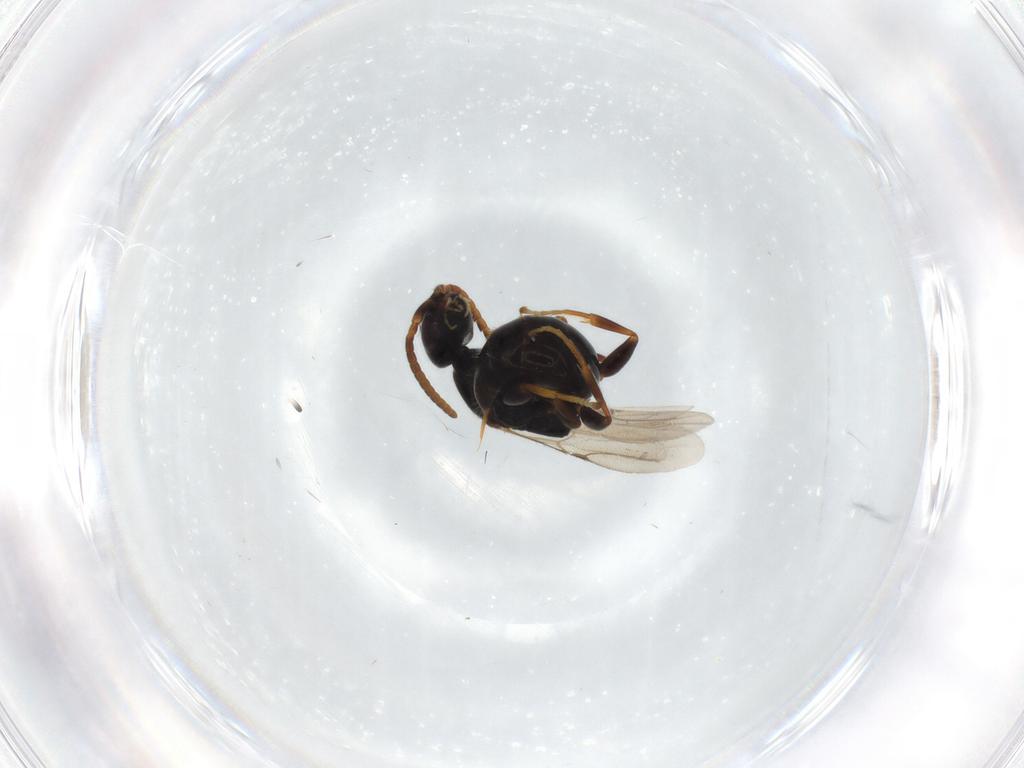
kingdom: Animalia
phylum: Arthropoda
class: Insecta
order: Hymenoptera
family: Bethylidae
